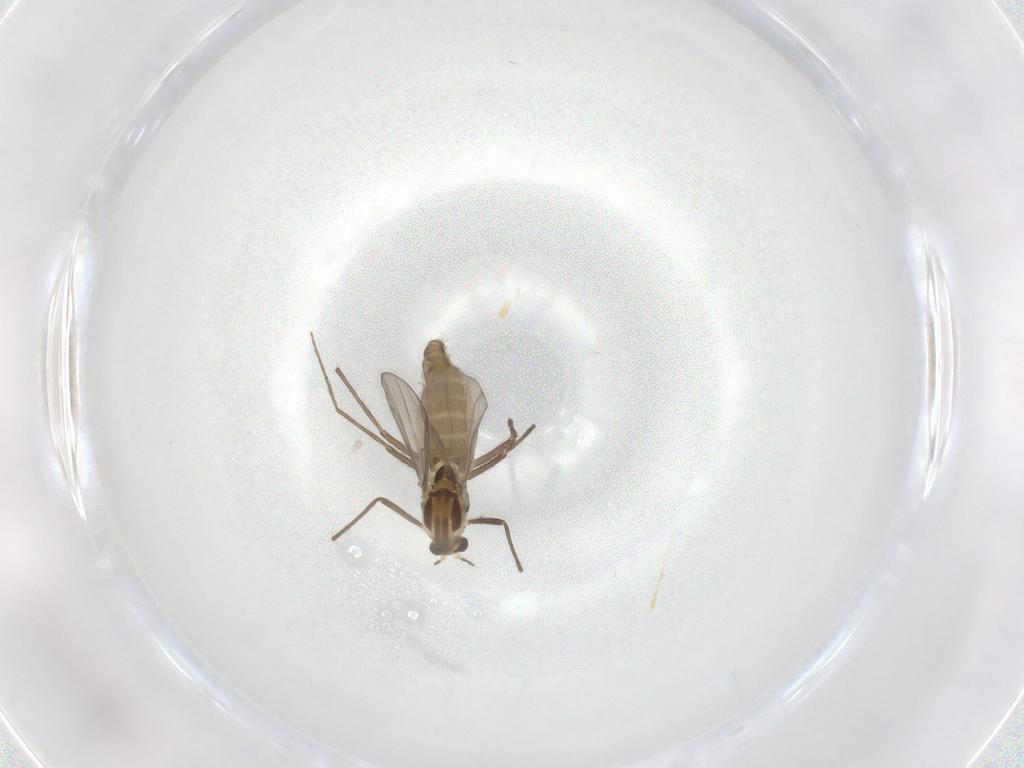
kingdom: Animalia
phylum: Arthropoda
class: Insecta
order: Diptera
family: Chironomidae
